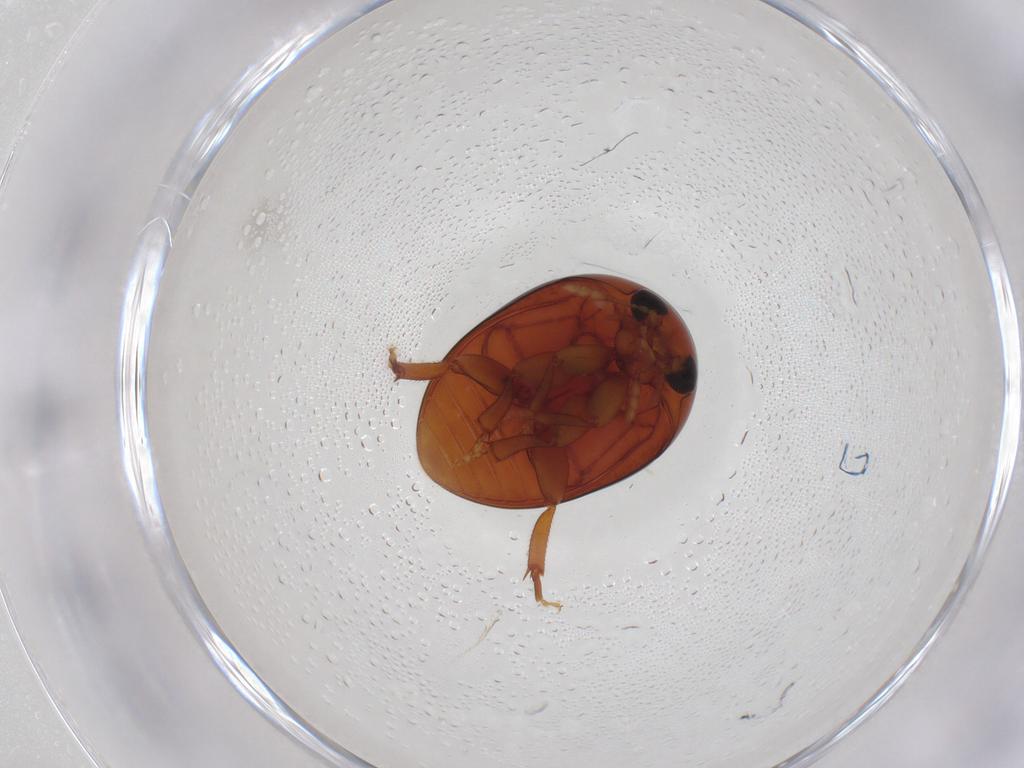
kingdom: Animalia
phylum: Arthropoda
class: Insecta
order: Coleoptera
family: Phalacridae
